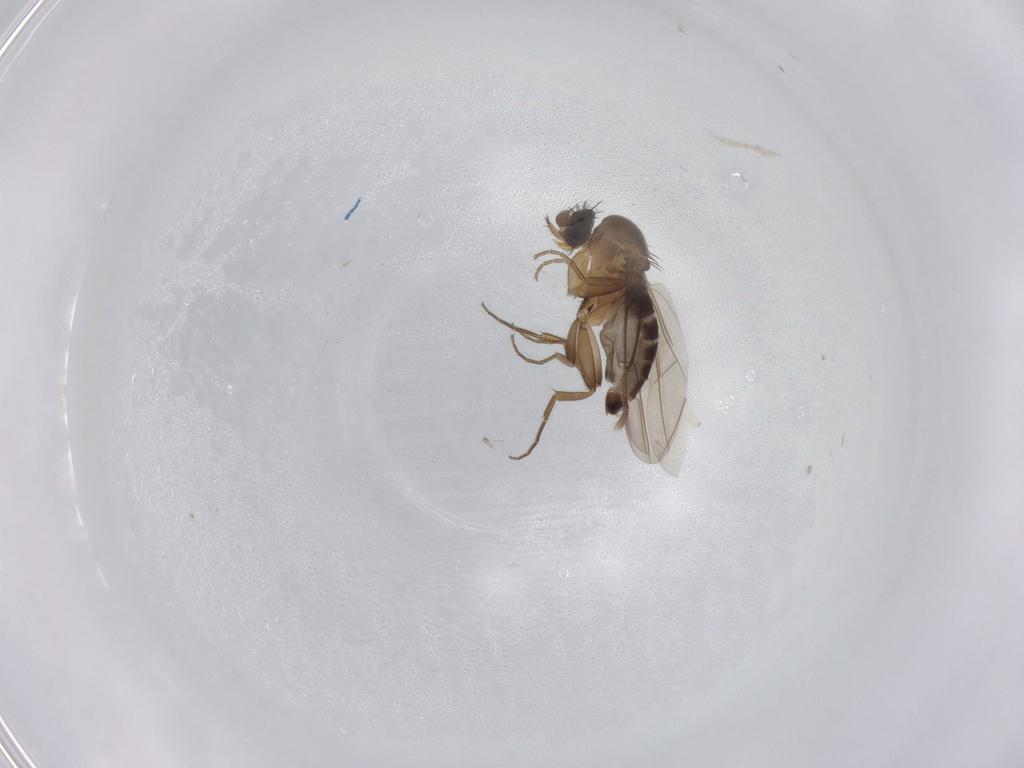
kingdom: Animalia
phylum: Arthropoda
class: Insecta
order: Diptera
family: Phoridae
